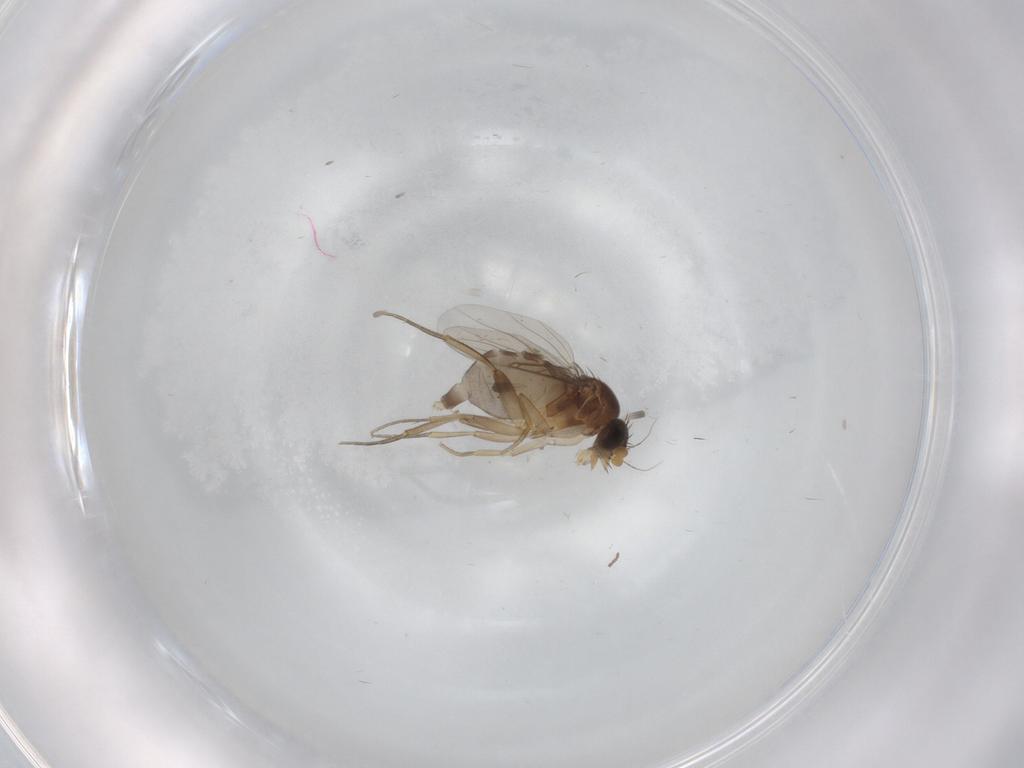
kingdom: Animalia
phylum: Arthropoda
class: Insecta
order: Diptera
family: Phoridae
